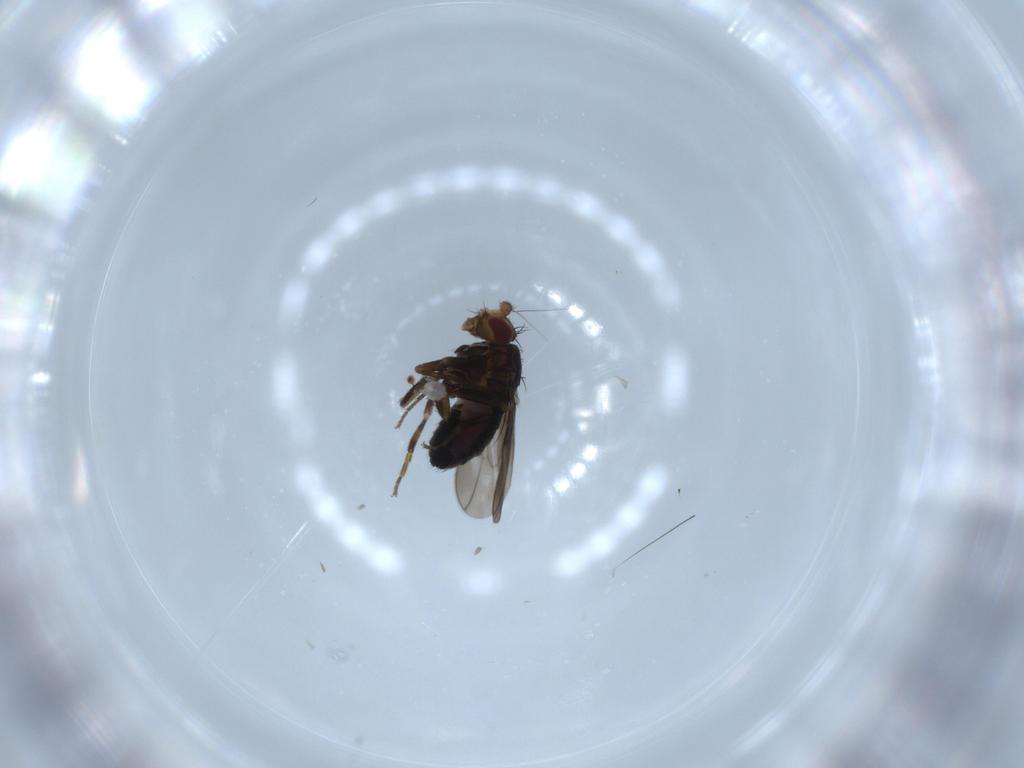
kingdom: Animalia
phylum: Arthropoda
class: Insecta
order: Diptera
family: Sphaeroceridae
